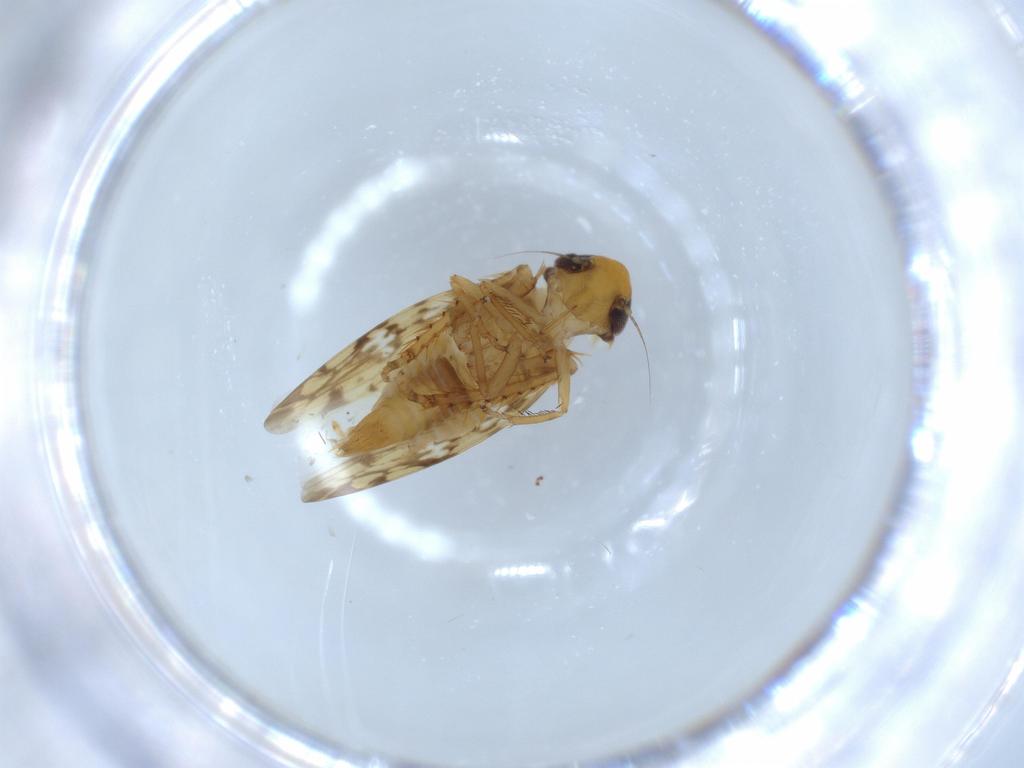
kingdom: Animalia
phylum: Arthropoda
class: Insecta
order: Hemiptera
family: Cicadellidae
